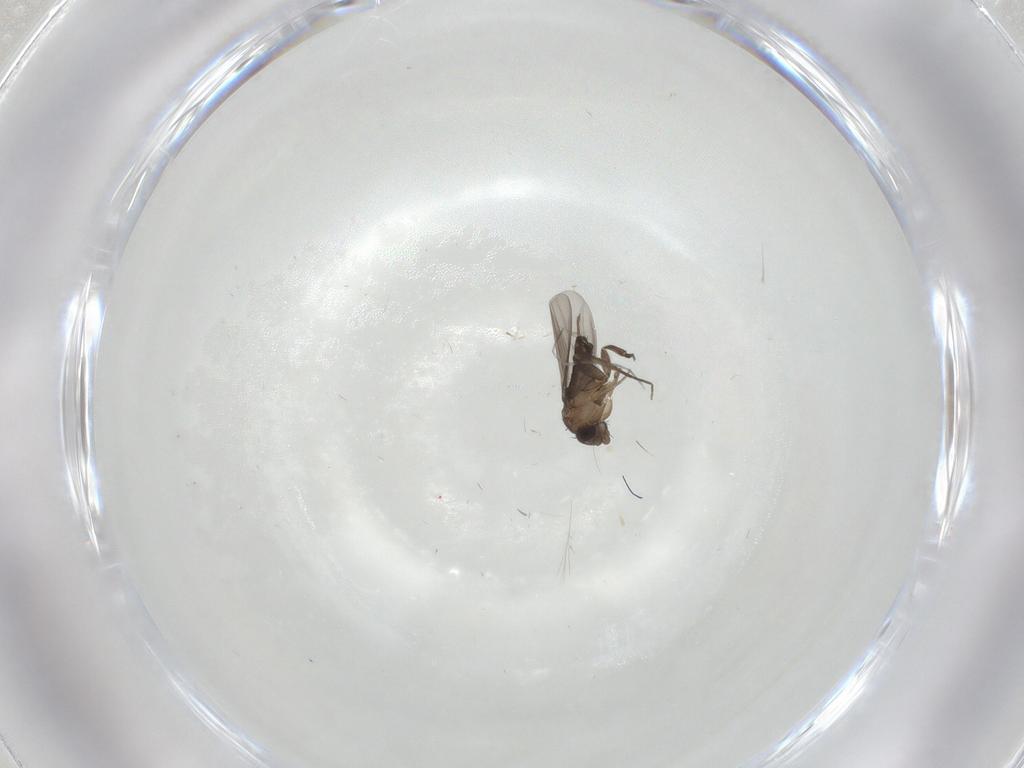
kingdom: Animalia
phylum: Arthropoda
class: Insecta
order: Diptera
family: Phoridae
